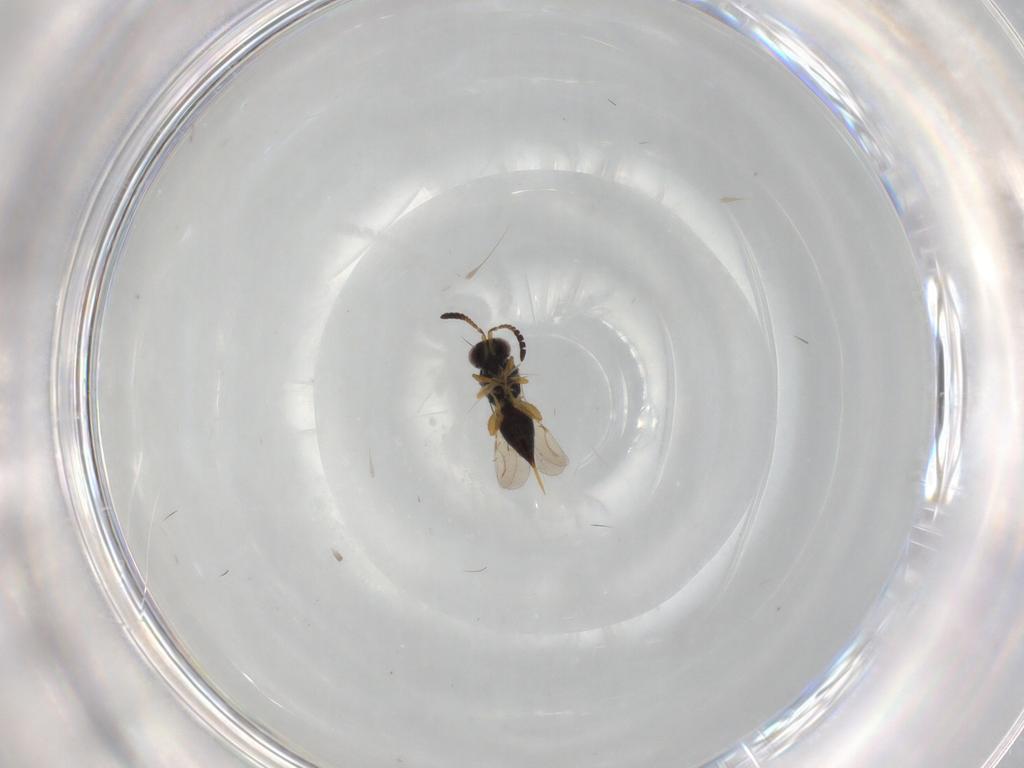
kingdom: Animalia
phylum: Arthropoda
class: Insecta
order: Hymenoptera
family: Ceraphronidae
